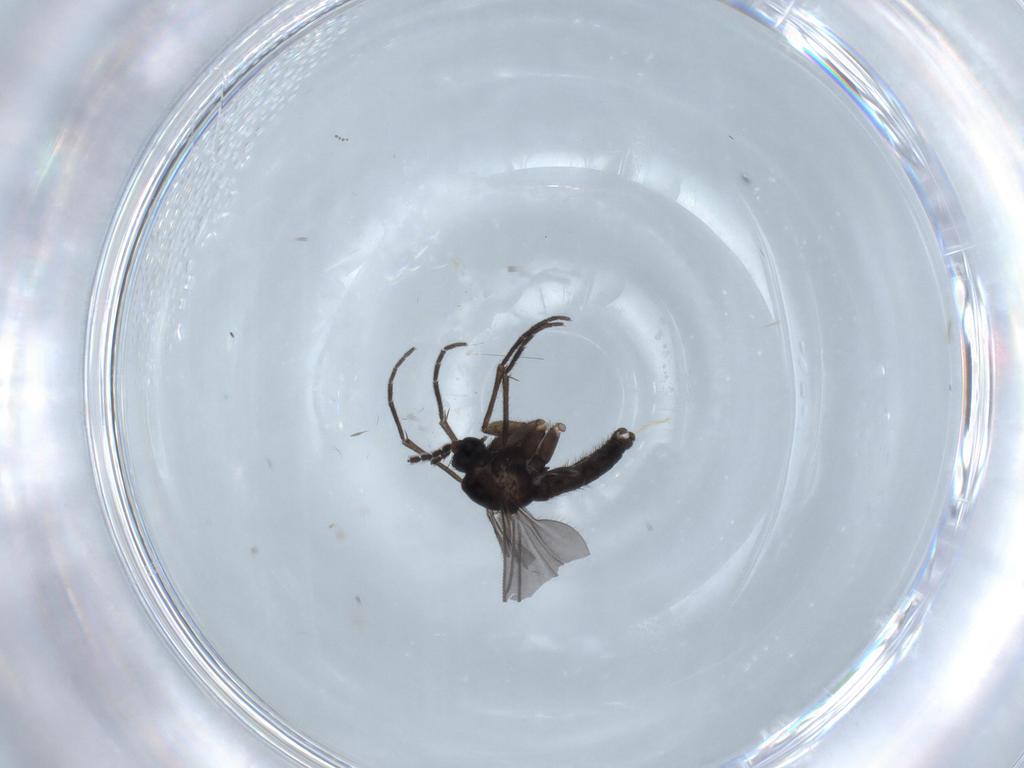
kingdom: Animalia
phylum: Arthropoda
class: Insecta
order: Diptera
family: Sciaridae
